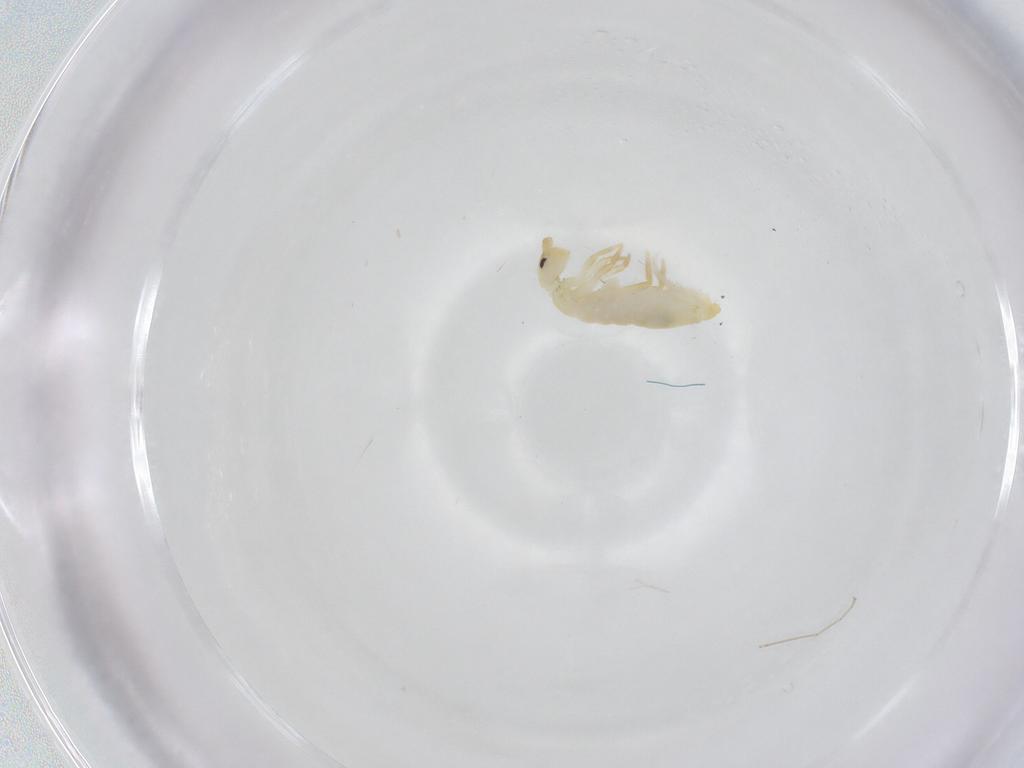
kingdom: Animalia
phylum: Arthropoda
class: Collembola
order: Entomobryomorpha
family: Entomobryidae
